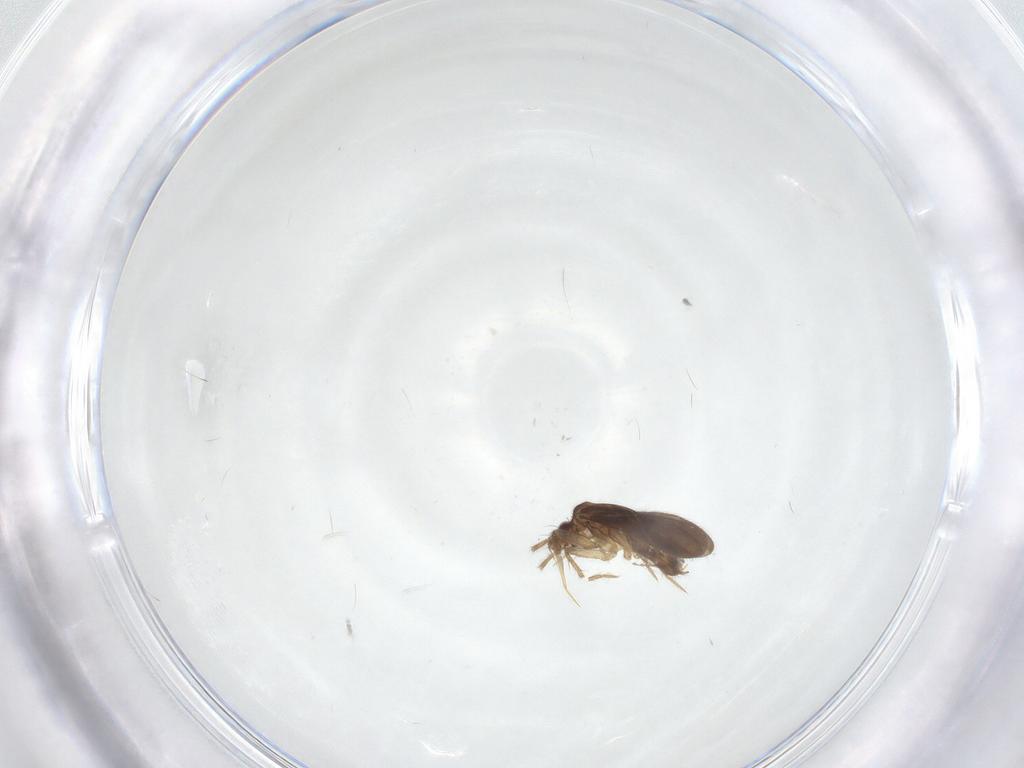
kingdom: Animalia
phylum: Arthropoda
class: Insecta
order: Hemiptera
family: Ceratocombidae
